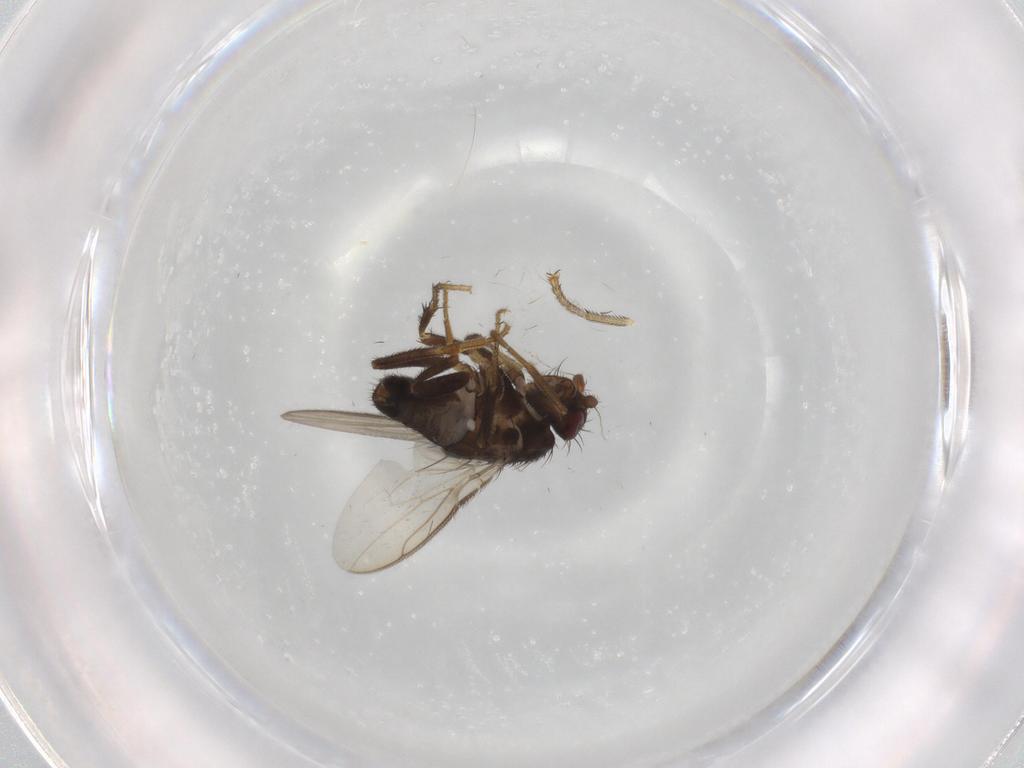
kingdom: Animalia
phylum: Arthropoda
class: Insecta
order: Diptera
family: Sphaeroceridae
